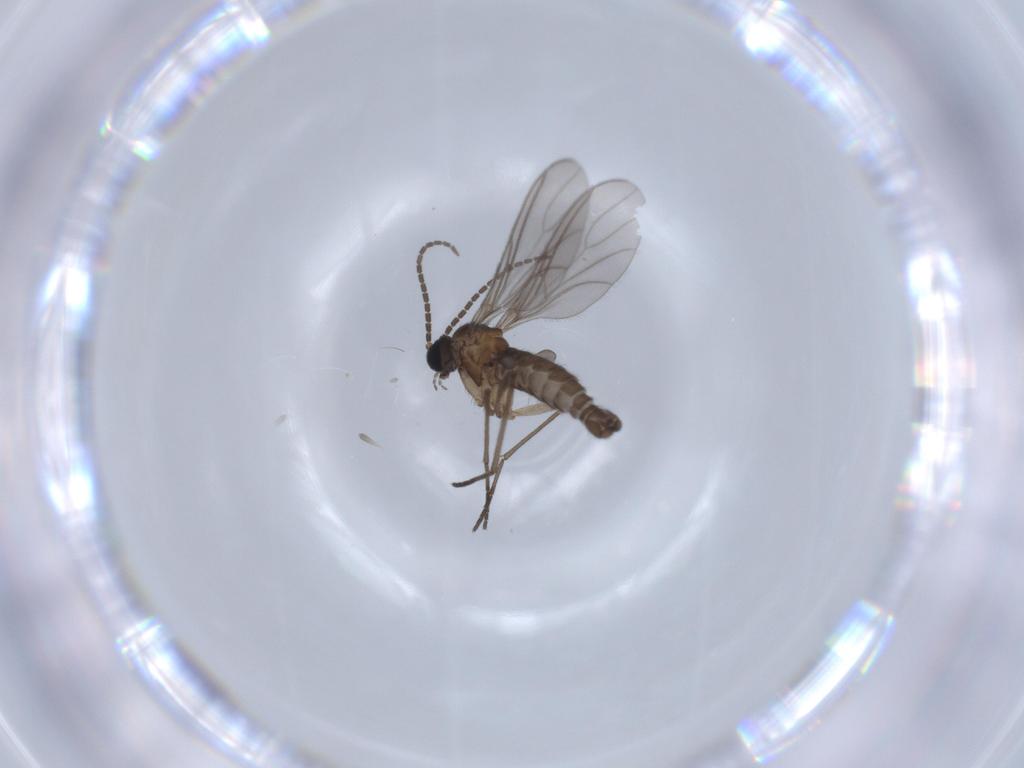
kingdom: Animalia
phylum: Arthropoda
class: Insecta
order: Diptera
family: Sciaridae
